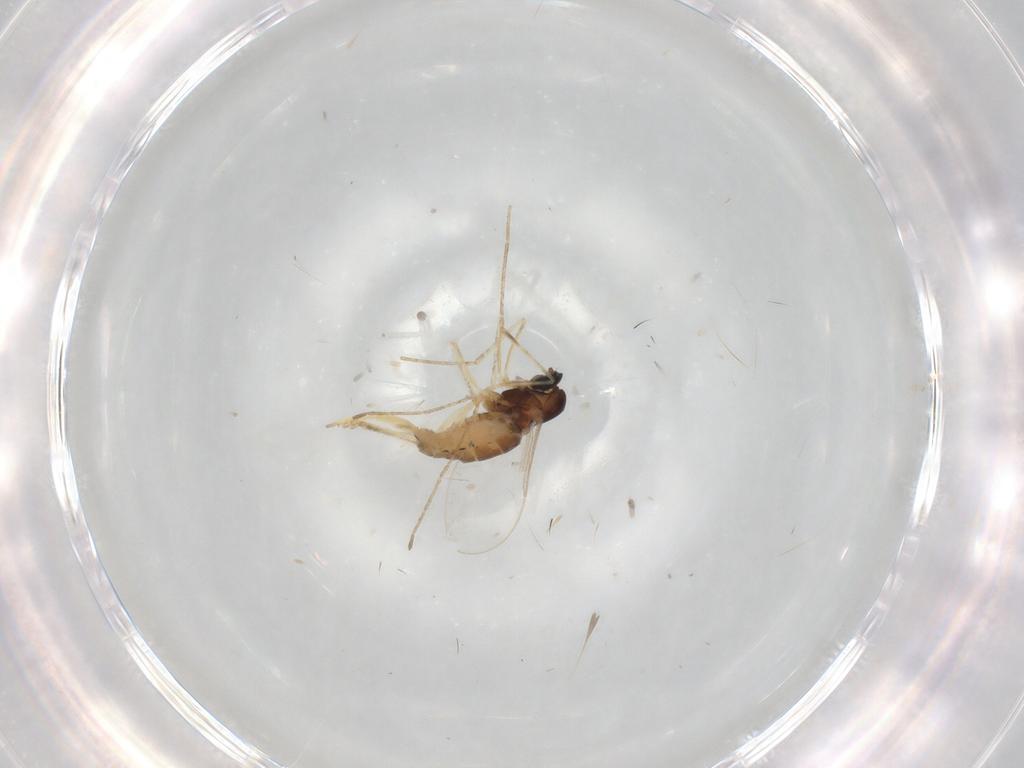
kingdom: Animalia
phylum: Arthropoda
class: Insecta
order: Diptera
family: Cecidomyiidae
